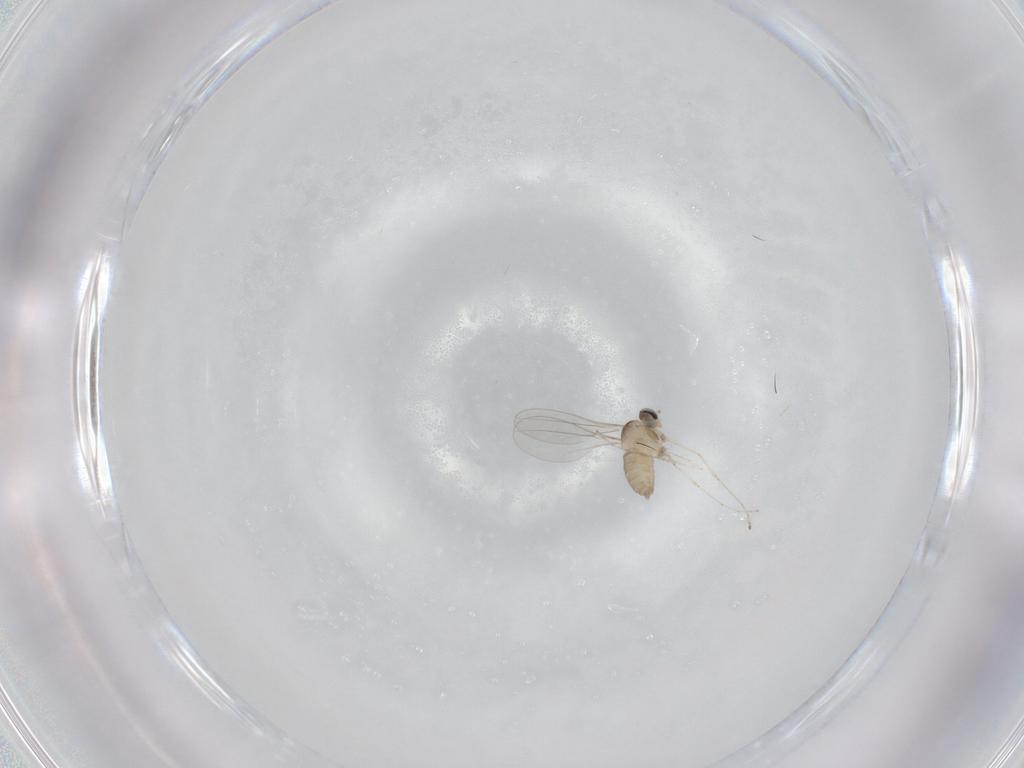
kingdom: Animalia
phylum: Arthropoda
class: Insecta
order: Diptera
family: Cecidomyiidae
